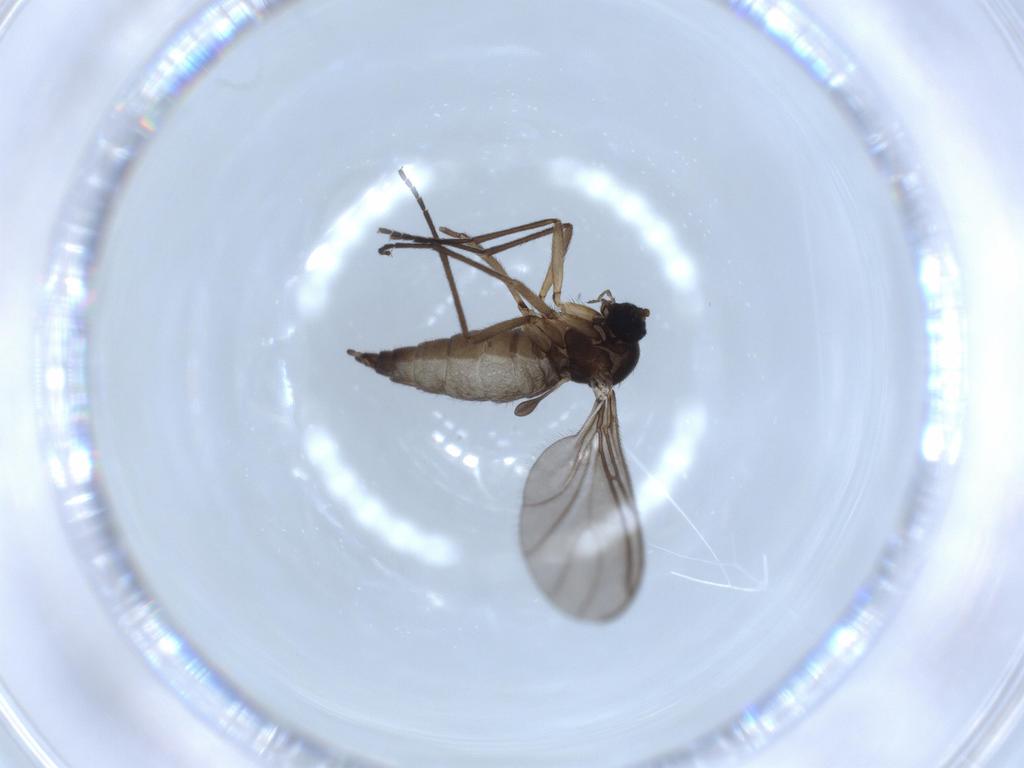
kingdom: Animalia
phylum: Arthropoda
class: Insecta
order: Diptera
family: Sciaridae
